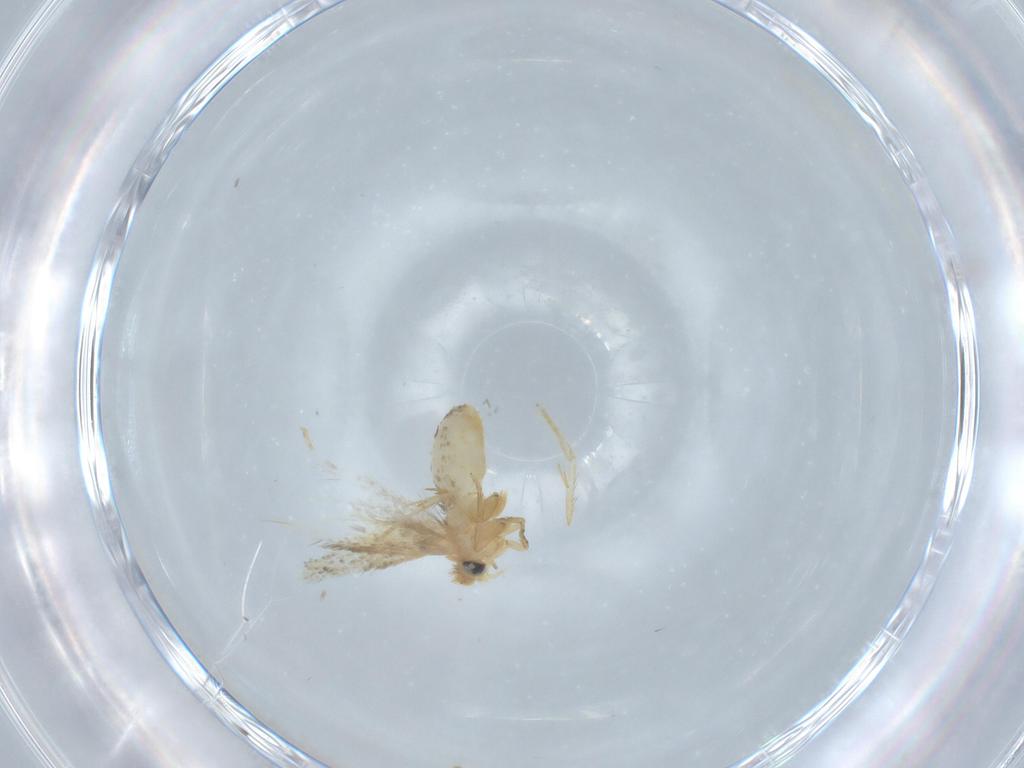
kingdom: Animalia
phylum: Arthropoda
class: Insecta
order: Lepidoptera
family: Nepticulidae
